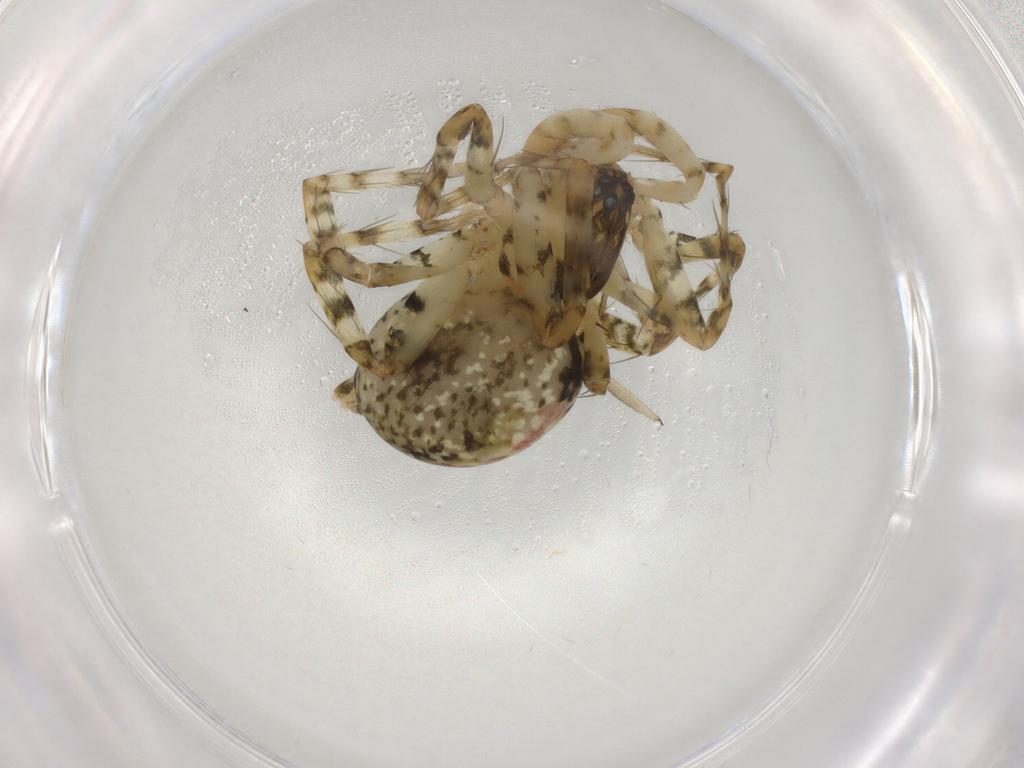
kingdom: Animalia
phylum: Arthropoda
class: Arachnida
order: Araneae
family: Theridiidae
